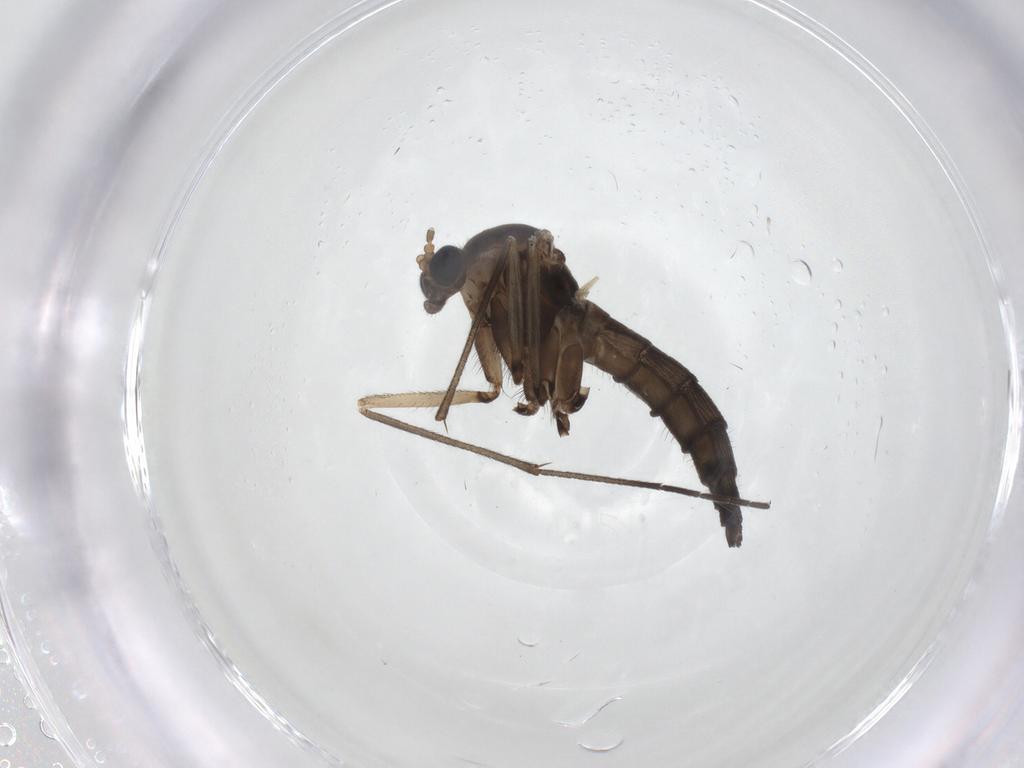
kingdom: Animalia
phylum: Arthropoda
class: Insecta
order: Diptera
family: Sciaridae
